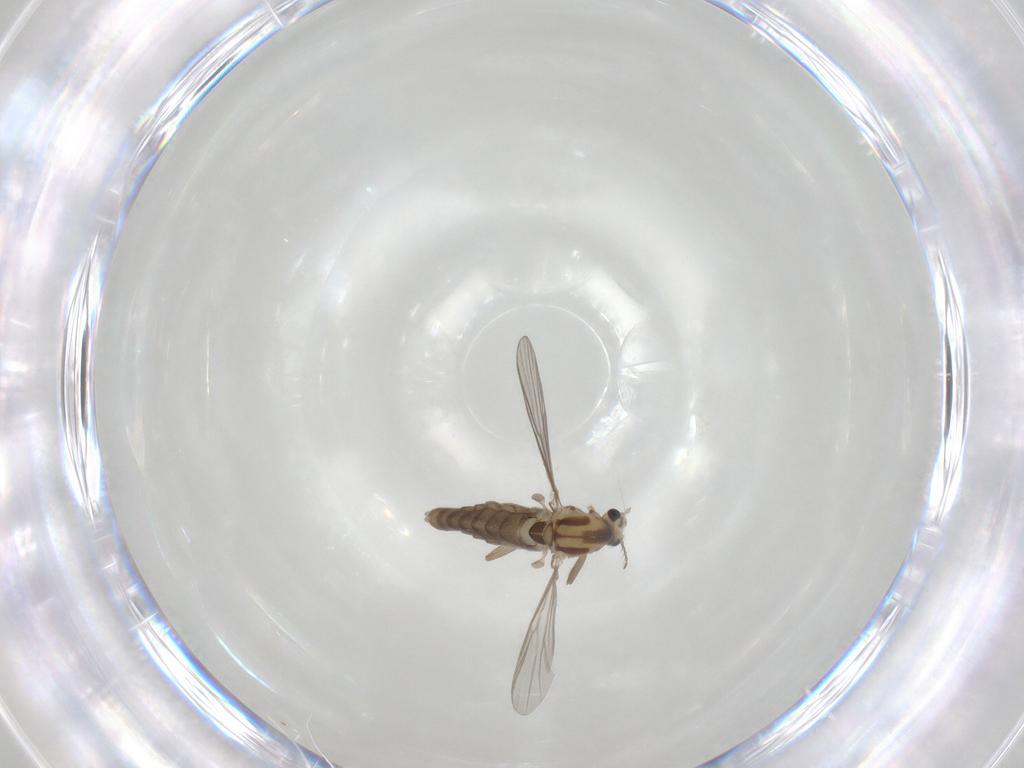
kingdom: Animalia
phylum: Arthropoda
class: Insecta
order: Diptera
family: Chironomidae
